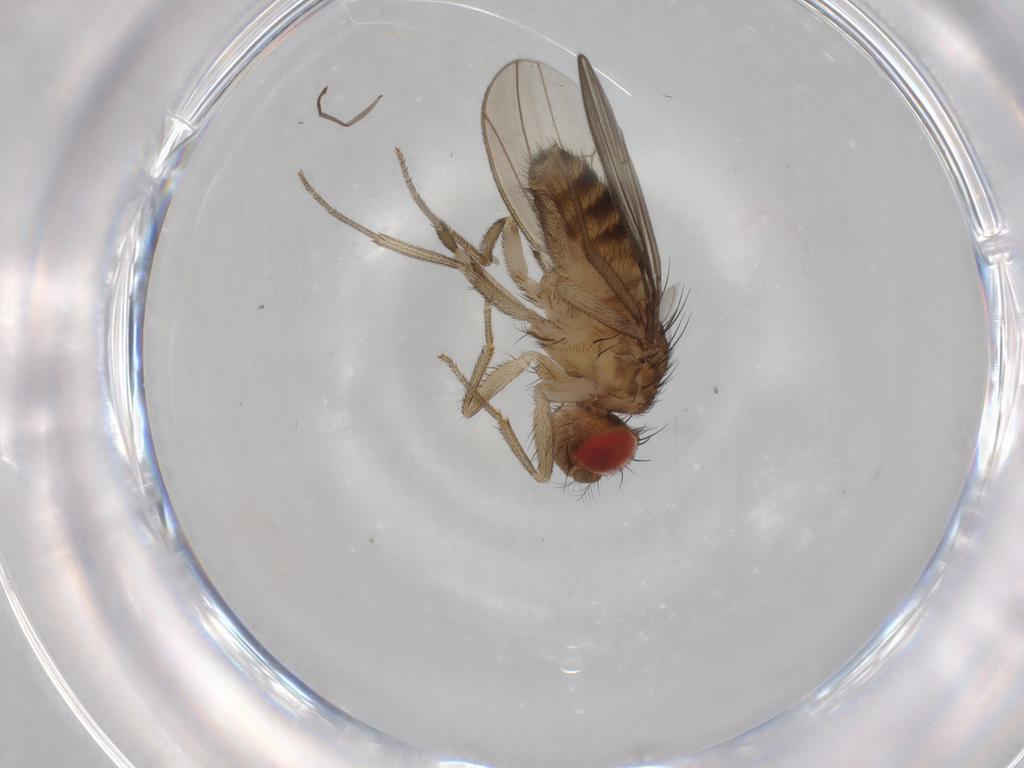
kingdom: Animalia
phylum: Arthropoda
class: Insecta
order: Diptera
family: Drosophilidae
